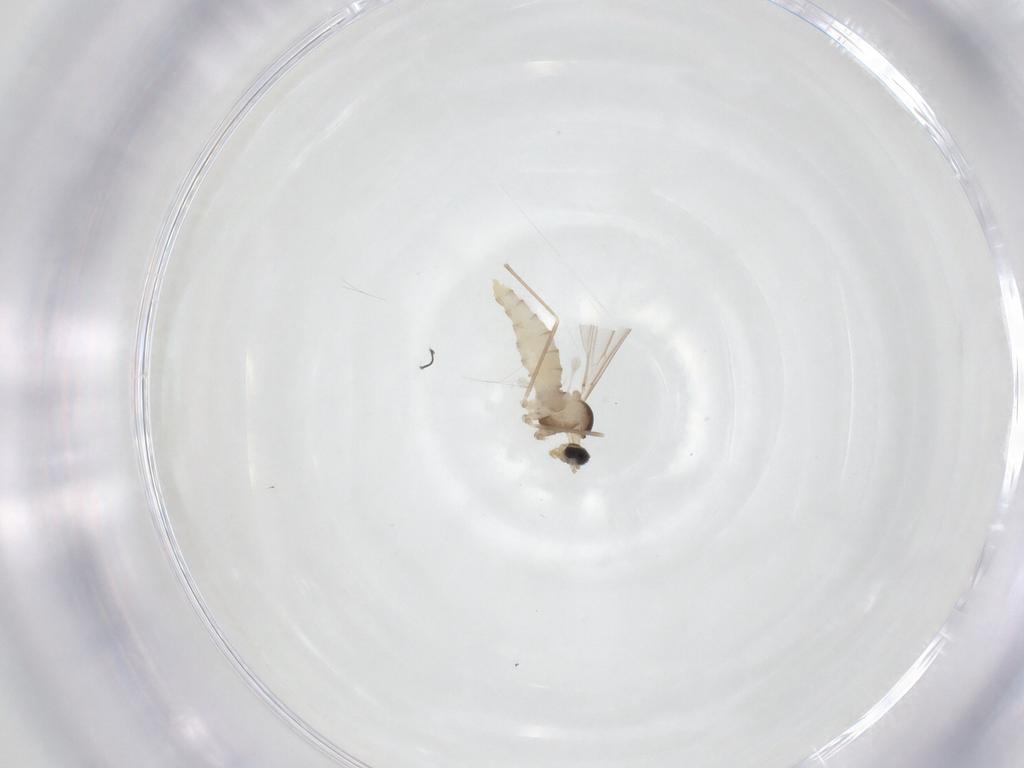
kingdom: Animalia
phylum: Arthropoda
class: Insecta
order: Diptera
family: Cecidomyiidae
